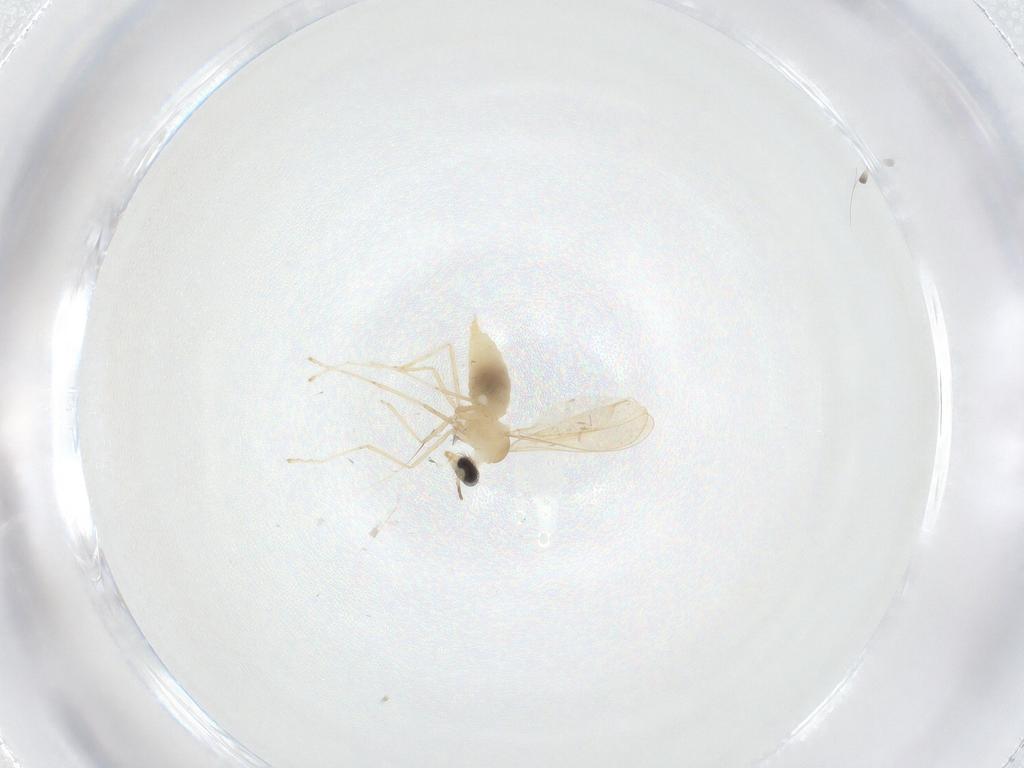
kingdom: Animalia
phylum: Arthropoda
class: Insecta
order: Diptera
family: Cecidomyiidae
